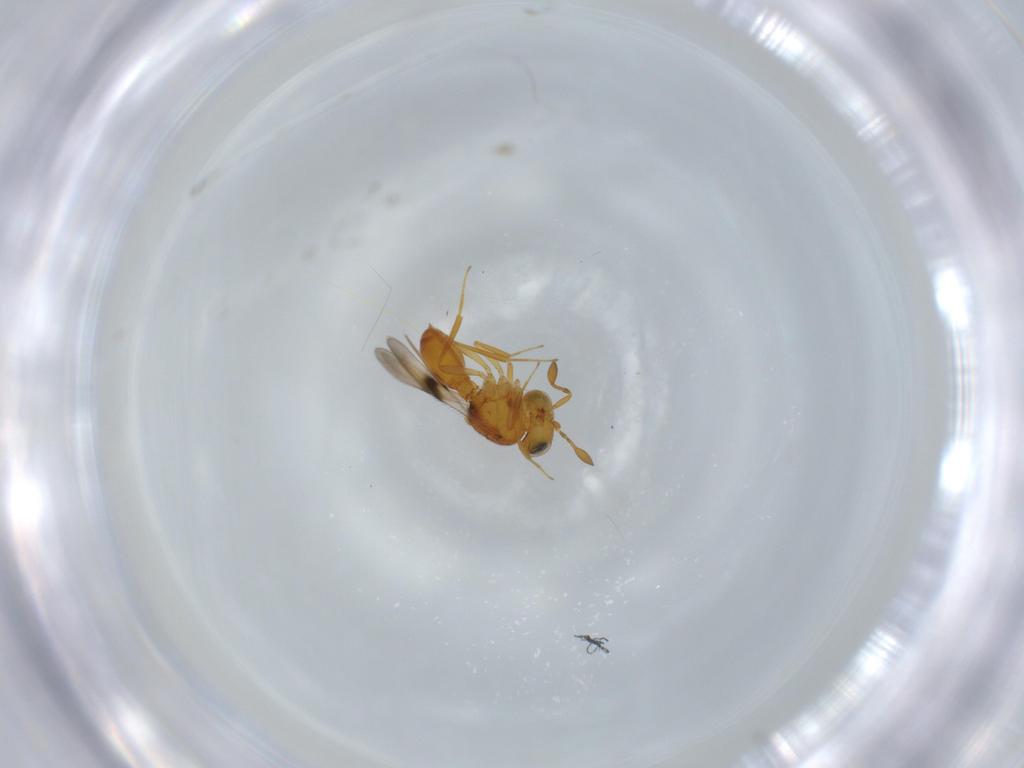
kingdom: Animalia
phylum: Arthropoda
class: Insecta
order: Hymenoptera
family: Scelionidae
